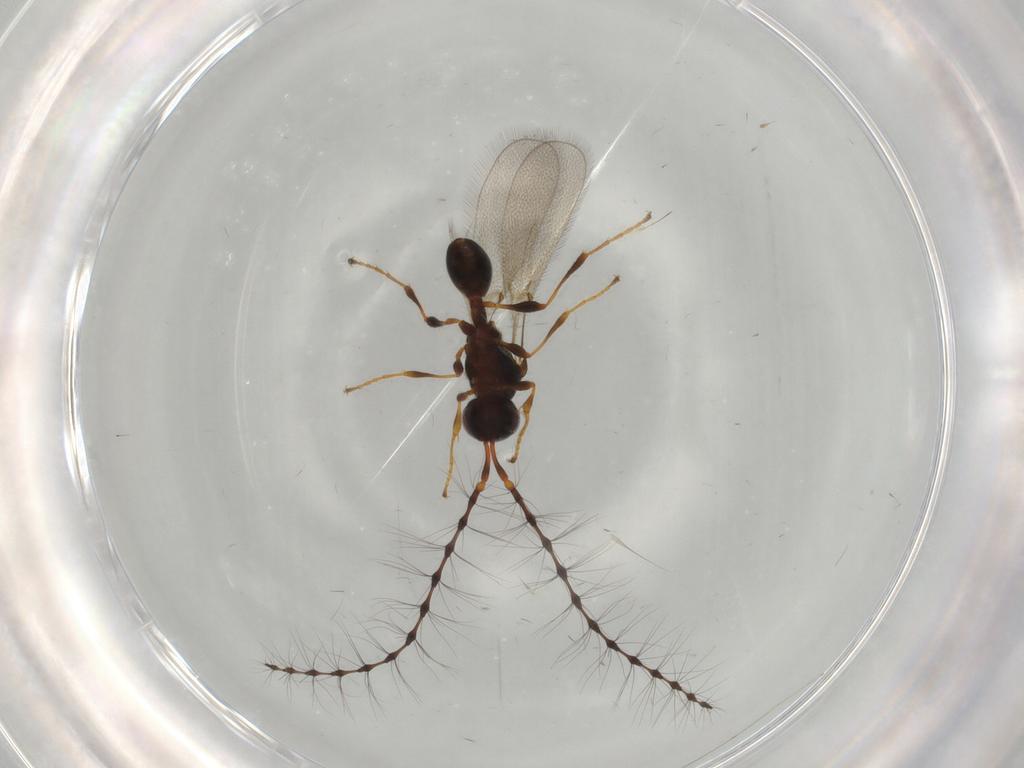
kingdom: Animalia
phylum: Arthropoda
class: Insecta
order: Hymenoptera
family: Diapriidae
